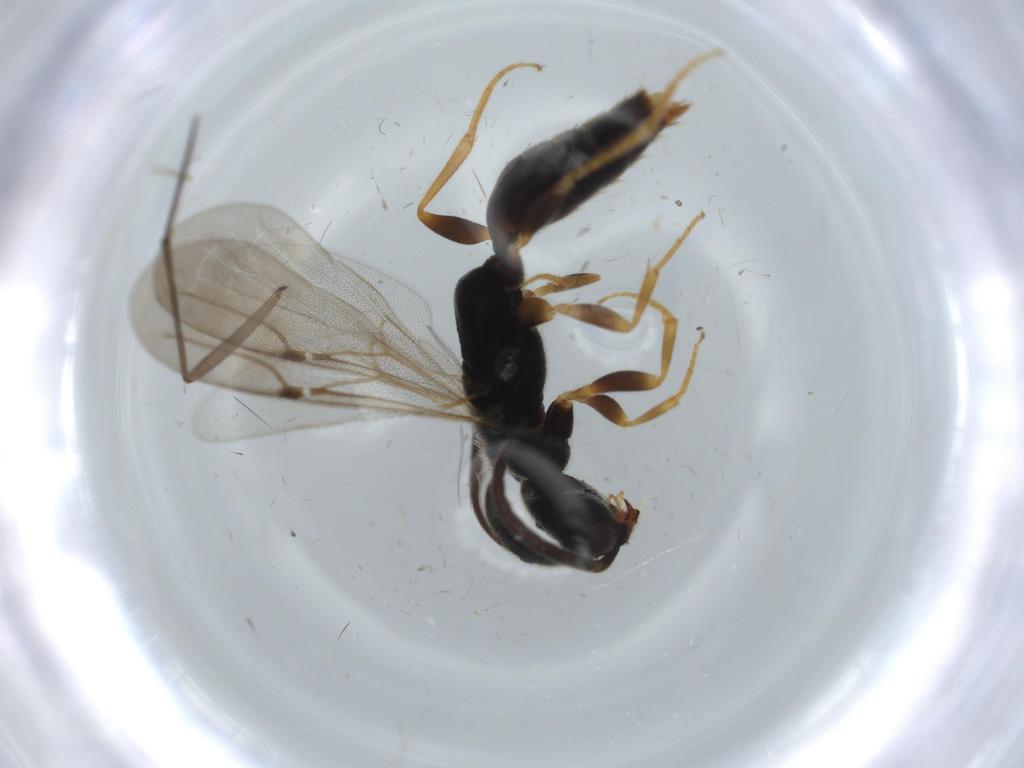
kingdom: Animalia
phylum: Arthropoda
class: Insecta
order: Hymenoptera
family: Bethylidae
